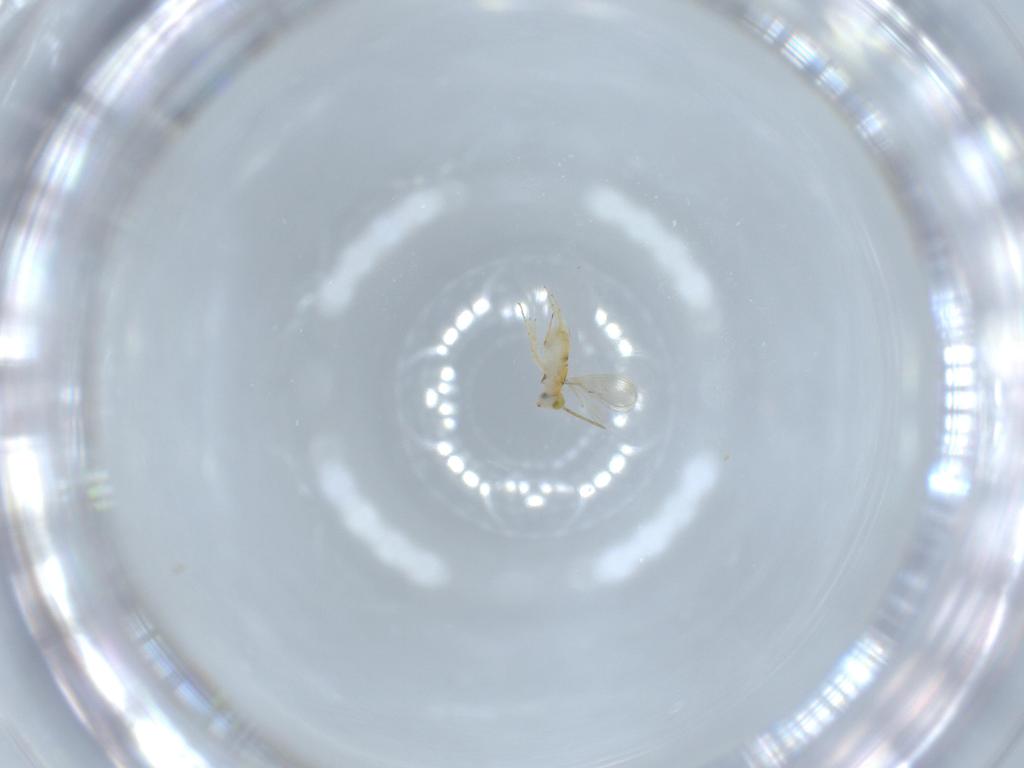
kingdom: Animalia
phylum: Arthropoda
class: Insecta
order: Hymenoptera
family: Aphelinidae
